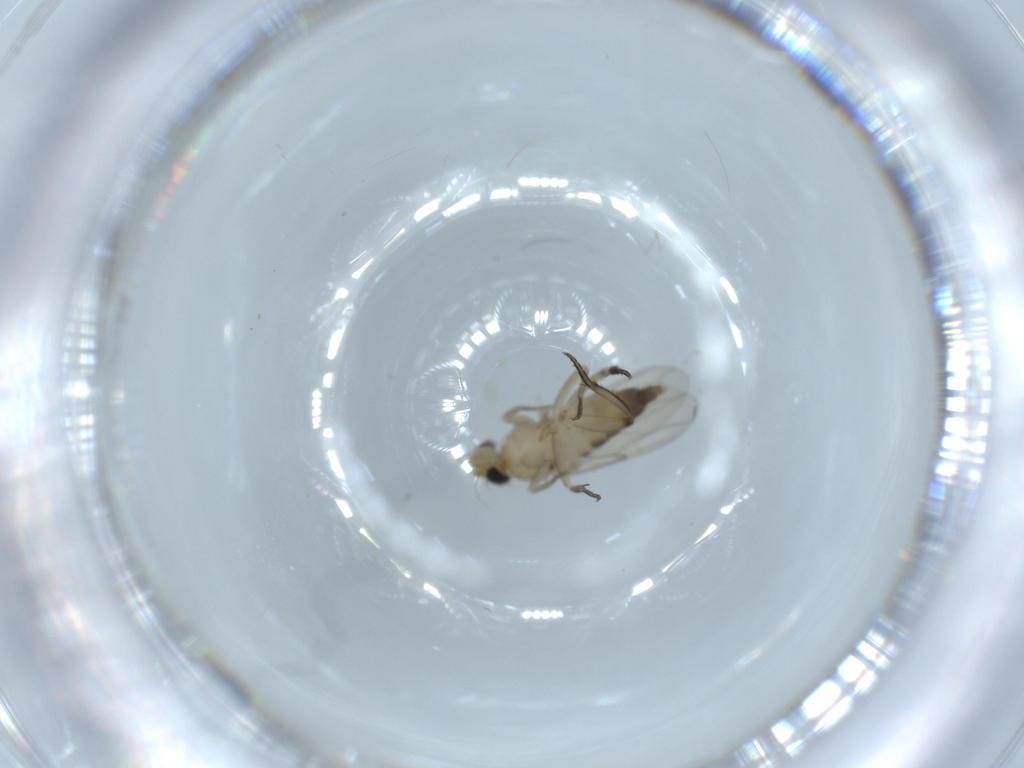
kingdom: Animalia
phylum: Arthropoda
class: Insecta
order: Diptera
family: Phoridae
